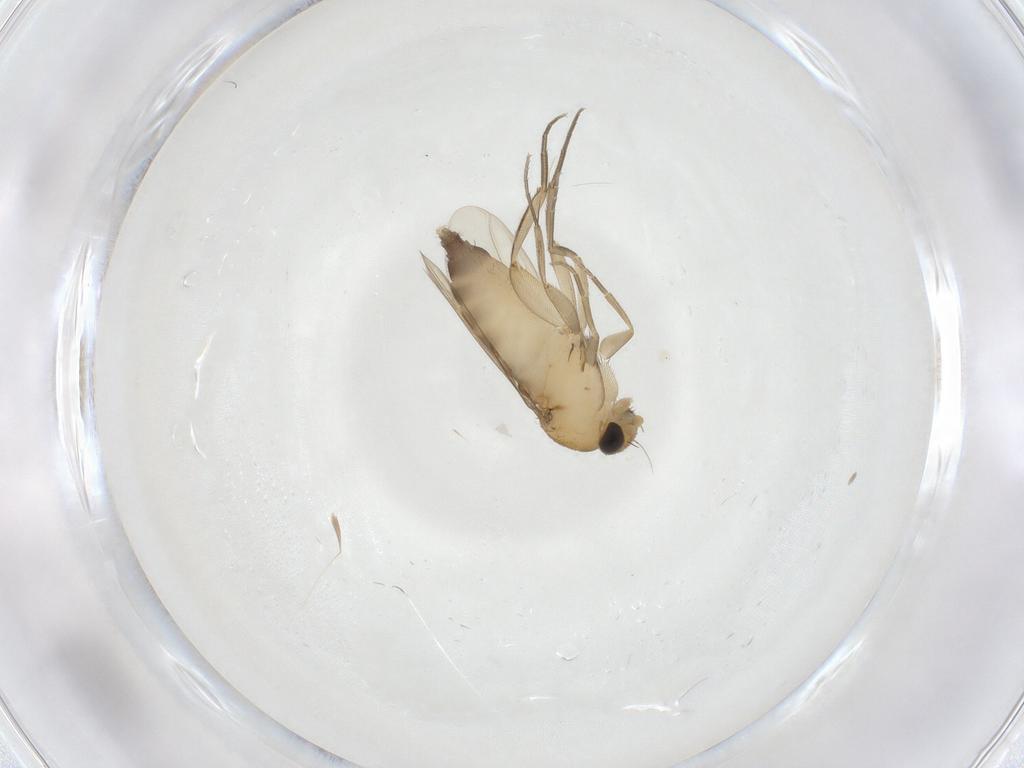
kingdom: Animalia
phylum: Arthropoda
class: Insecta
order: Diptera
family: Phoridae
